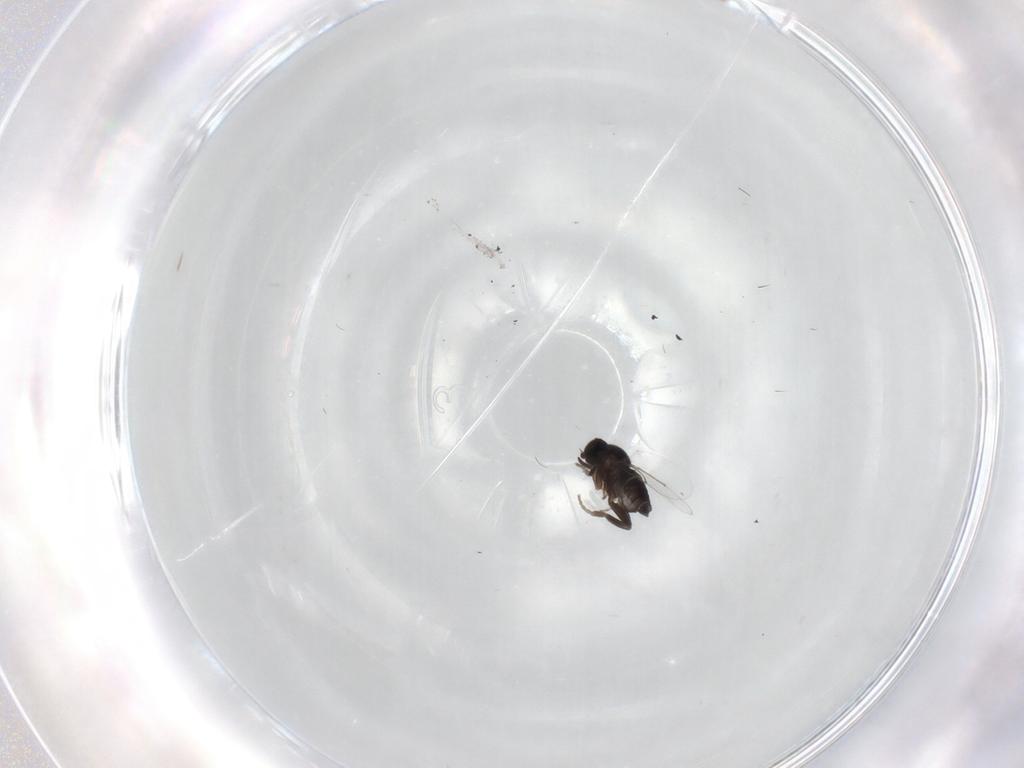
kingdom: Animalia
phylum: Arthropoda
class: Insecta
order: Diptera
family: Phoridae
